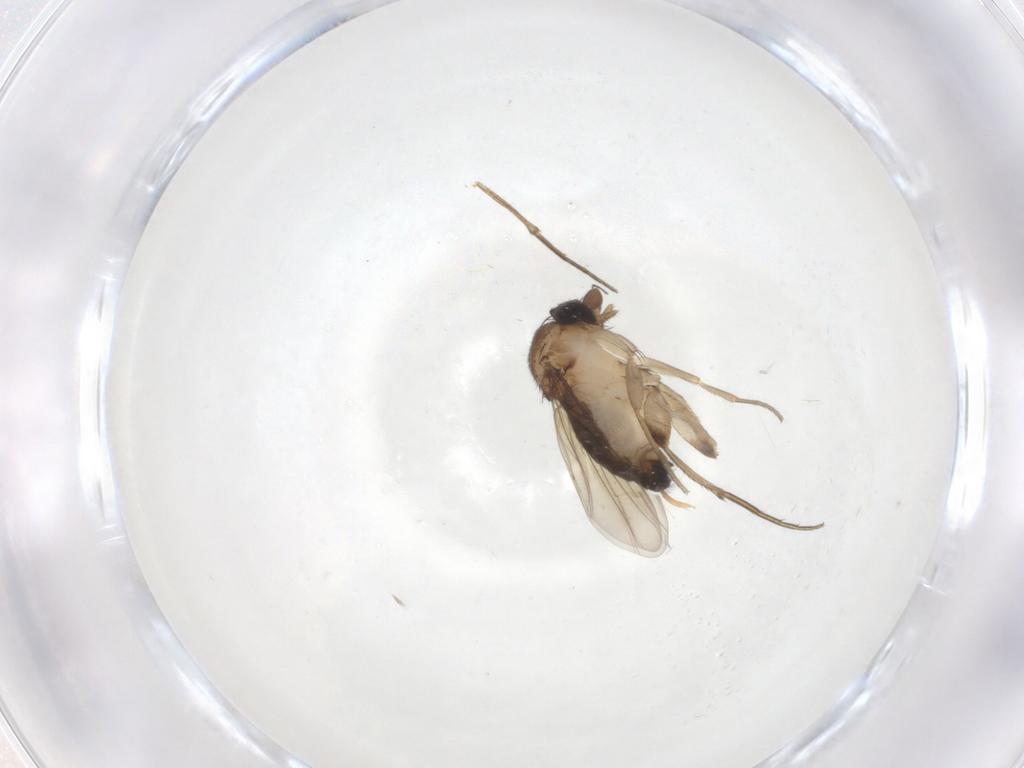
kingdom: Animalia
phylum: Arthropoda
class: Insecta
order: Diptera
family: Phoridae
